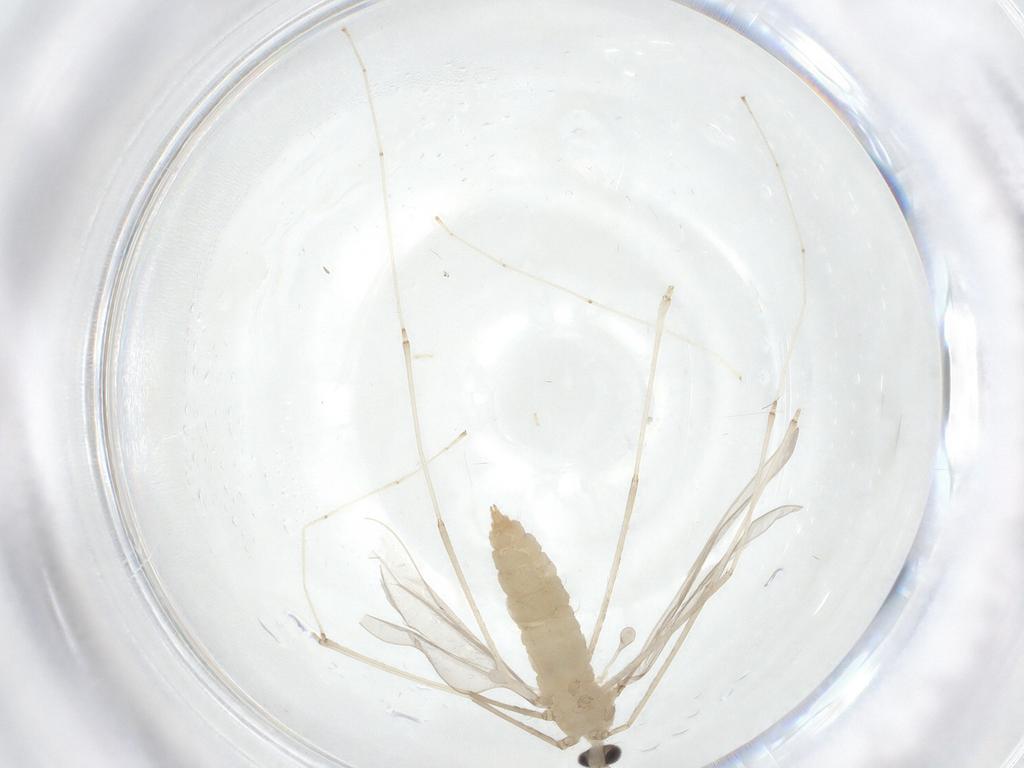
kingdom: Animalia
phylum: Arthropoda
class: Insecta
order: Diptera
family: Cecidomyiidae
